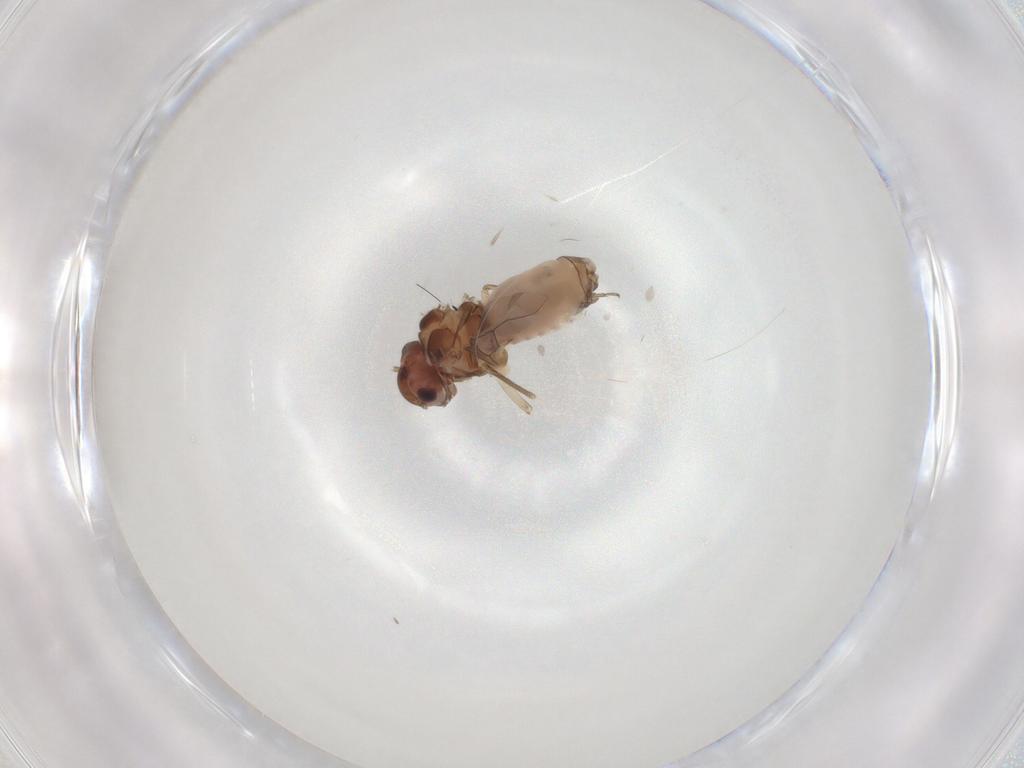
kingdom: Animalia
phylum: Arthropoda
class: Insecta
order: Psocodea
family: Peripsocidae
